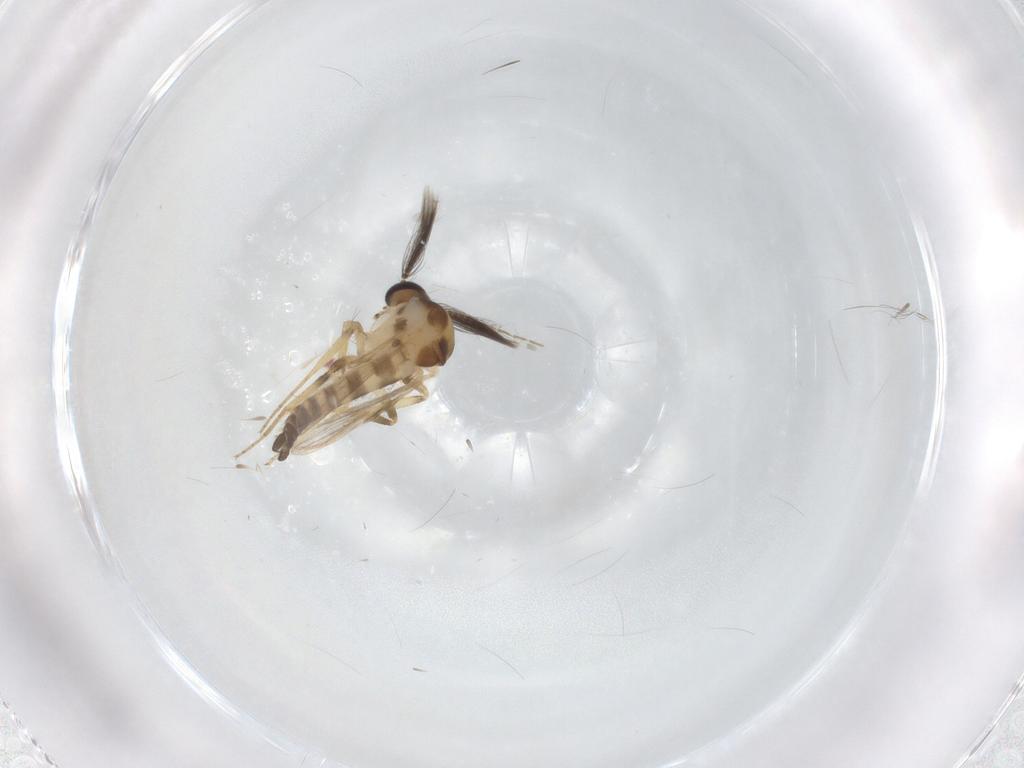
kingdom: Animalia
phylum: Arthropoda
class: Insecta
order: Diptera
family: Ceratopogonidae
